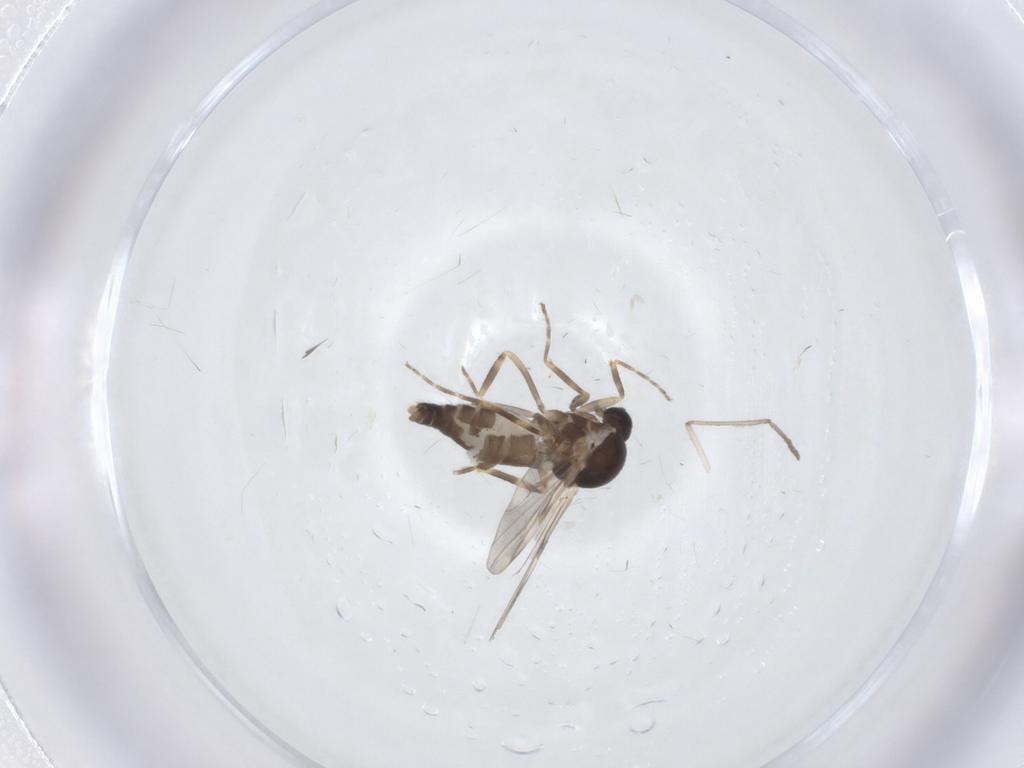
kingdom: Animalia
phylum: Arthropoda
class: Insecta
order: Diptera
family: Ceratopogonidae
